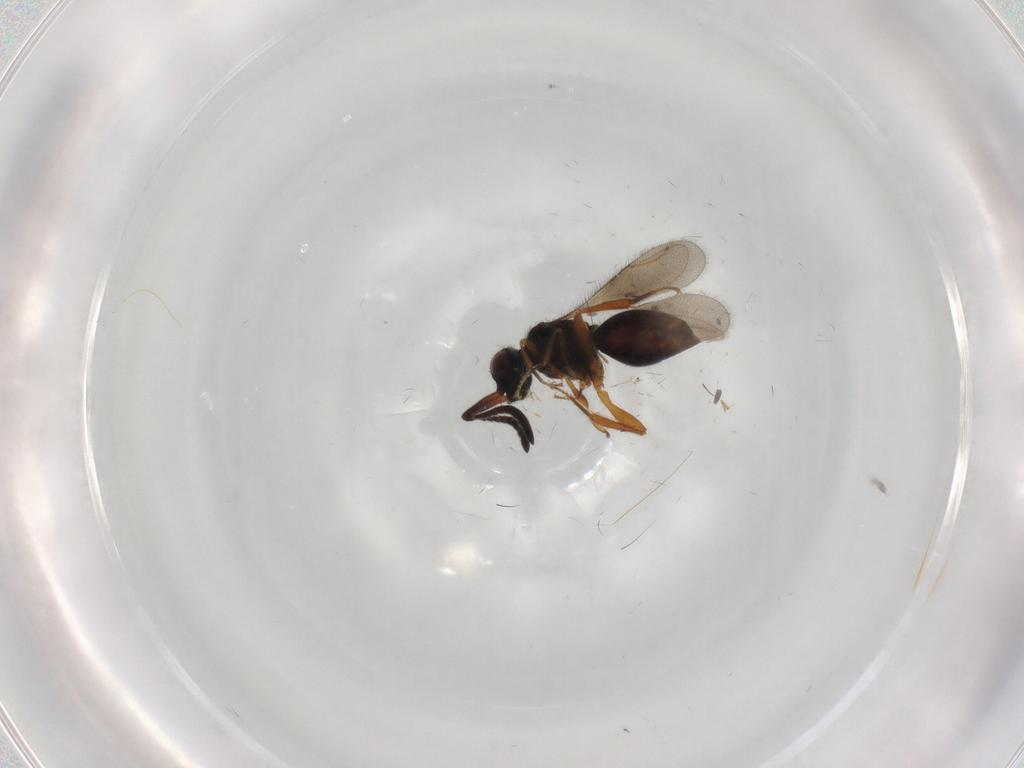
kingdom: Animalia
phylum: Arthropoda
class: Insecta
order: Hymenoptera
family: Ceraphronidae
